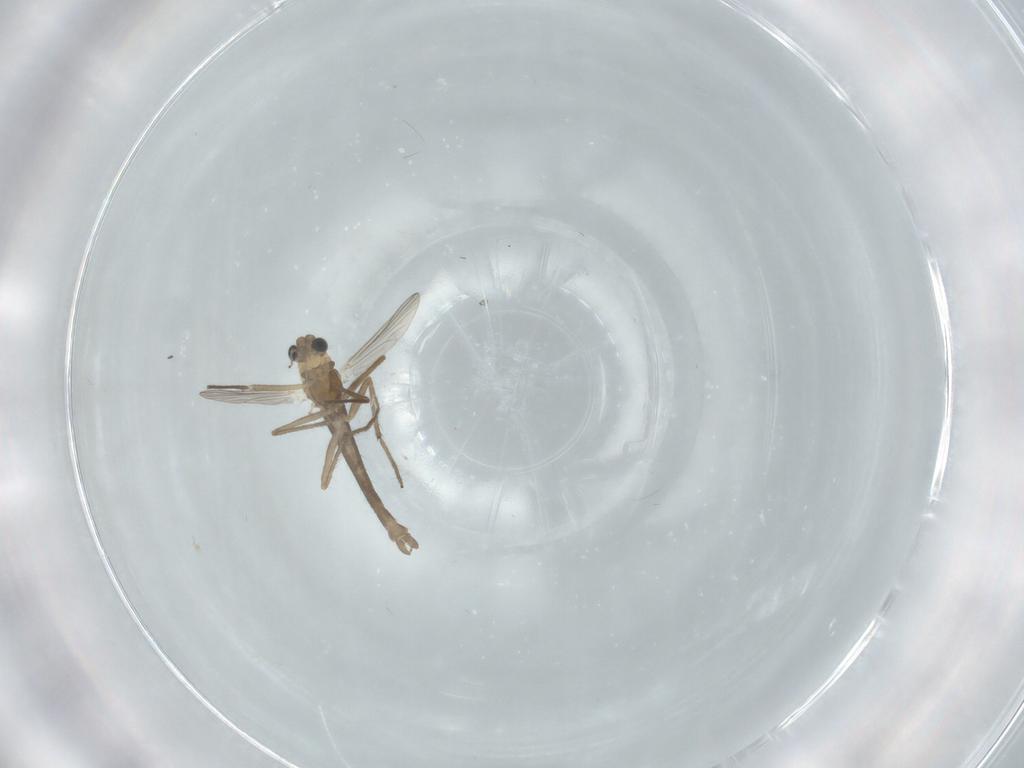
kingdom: Animalia
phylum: Arthropoda
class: Insecta
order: Diptera
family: Chironomidae
